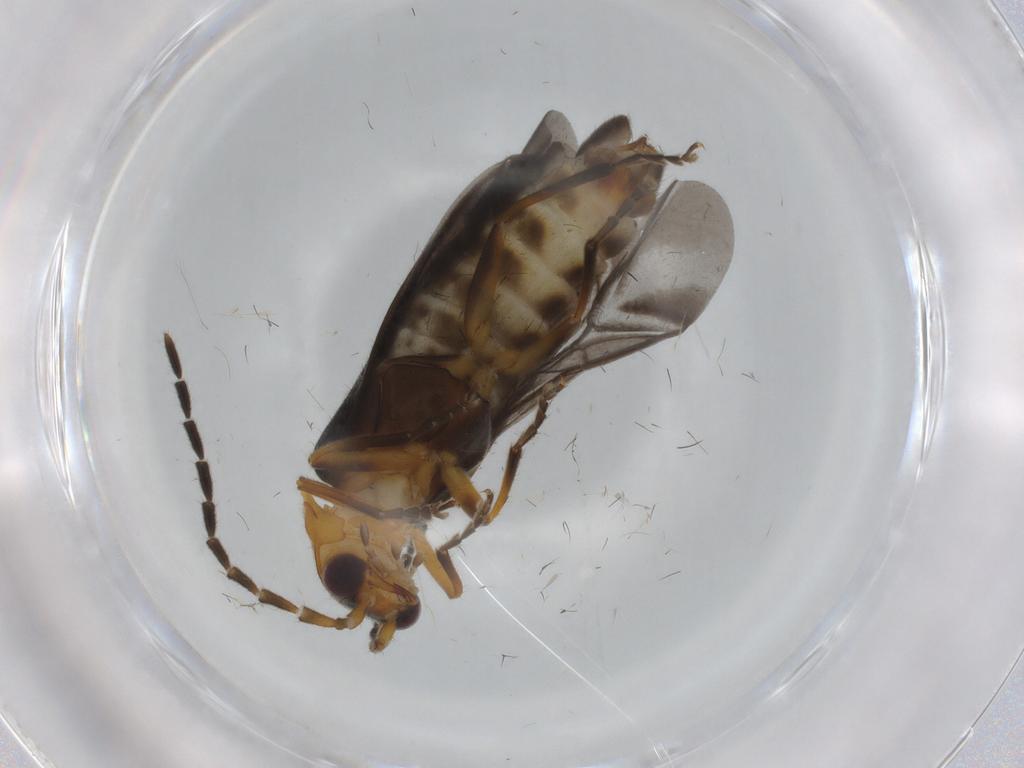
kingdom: Animalia
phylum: Arthropoda
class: Insecta
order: Coleoptera
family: Cantharidae
